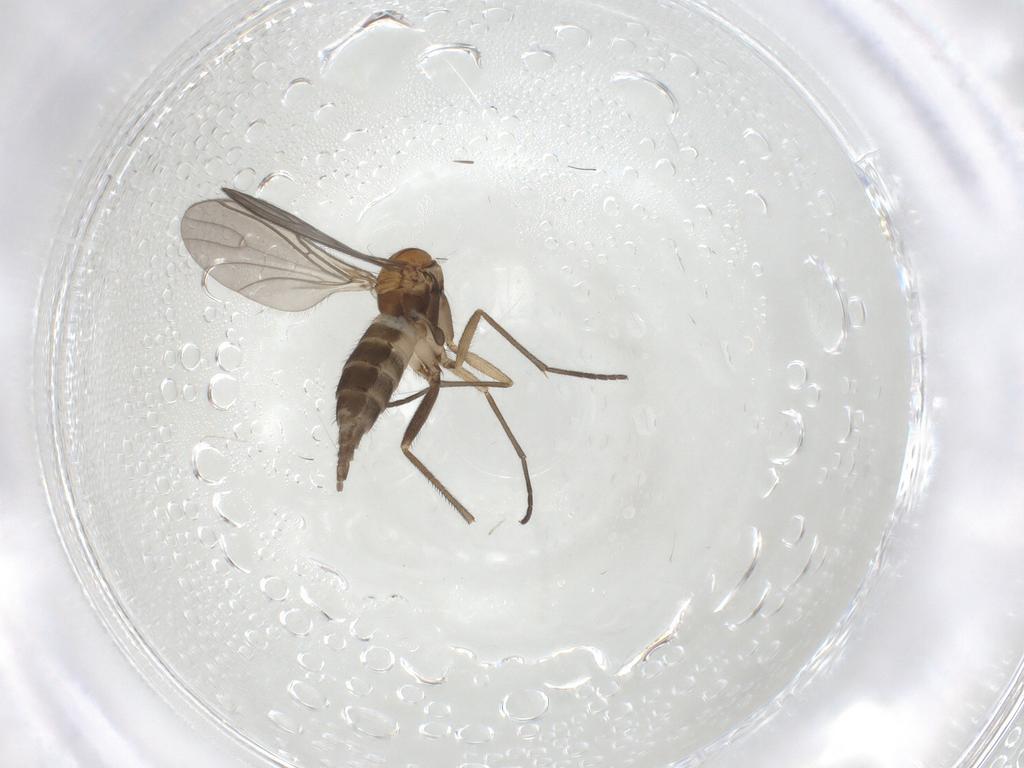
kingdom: Animalia
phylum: Arthropoda
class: Insecta
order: Diptera
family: Sciaridae
